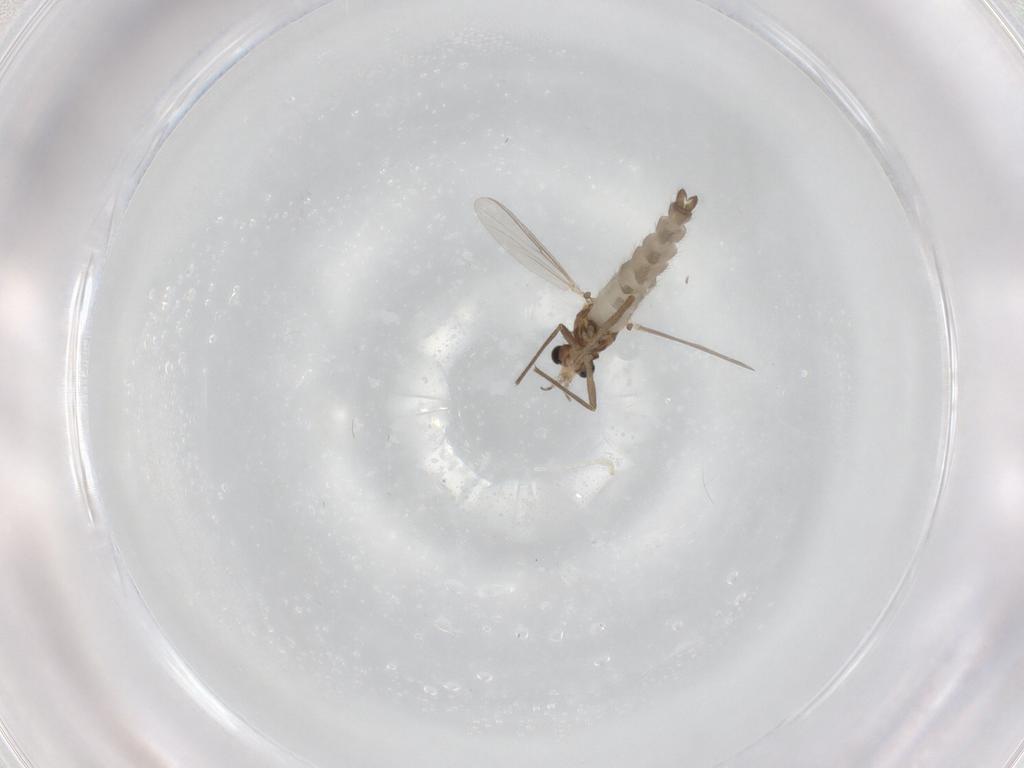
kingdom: Animalia
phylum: Arthropoda
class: Insecta
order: Diptera
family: Chironomidae
